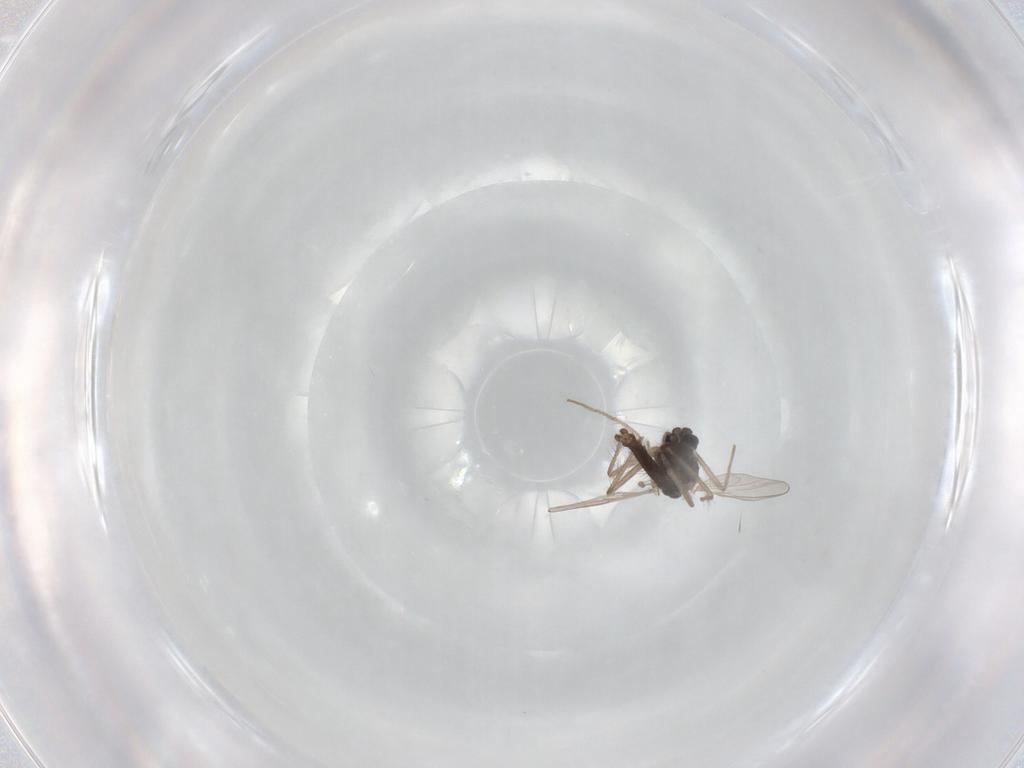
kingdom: Animalia
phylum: Arthropoda
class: Insecta
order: Diptera
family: Chironomidae
